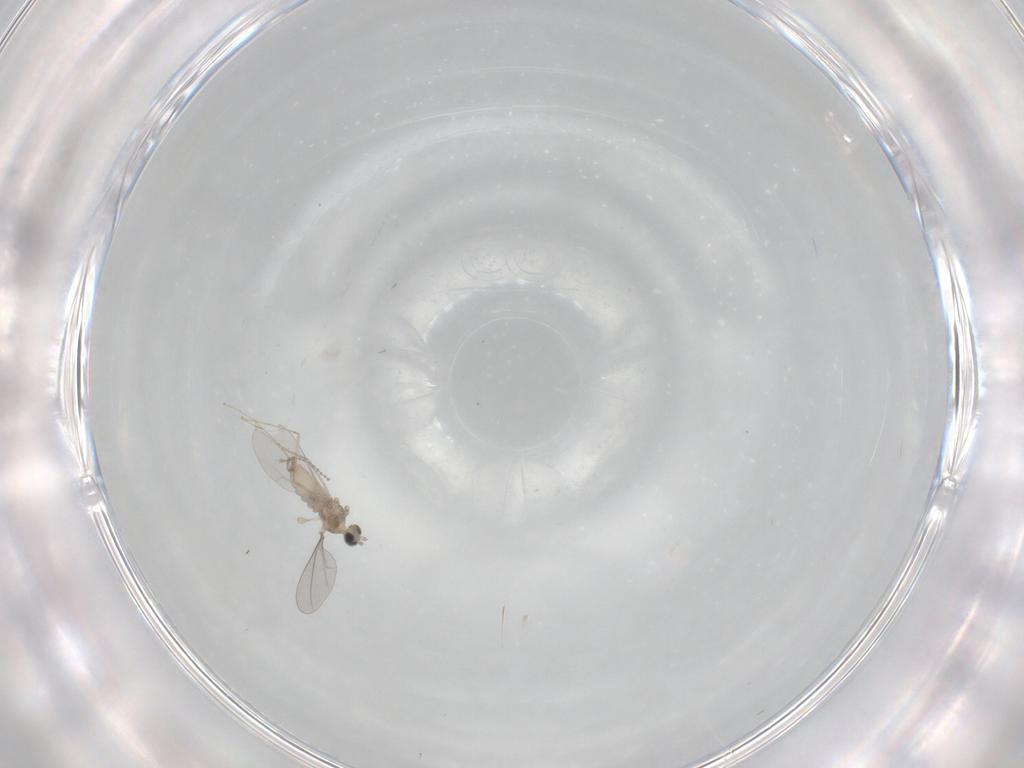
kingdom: Animalia
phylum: Arthropoda
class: Insecta
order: Diptera
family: Cecidomyiidae
